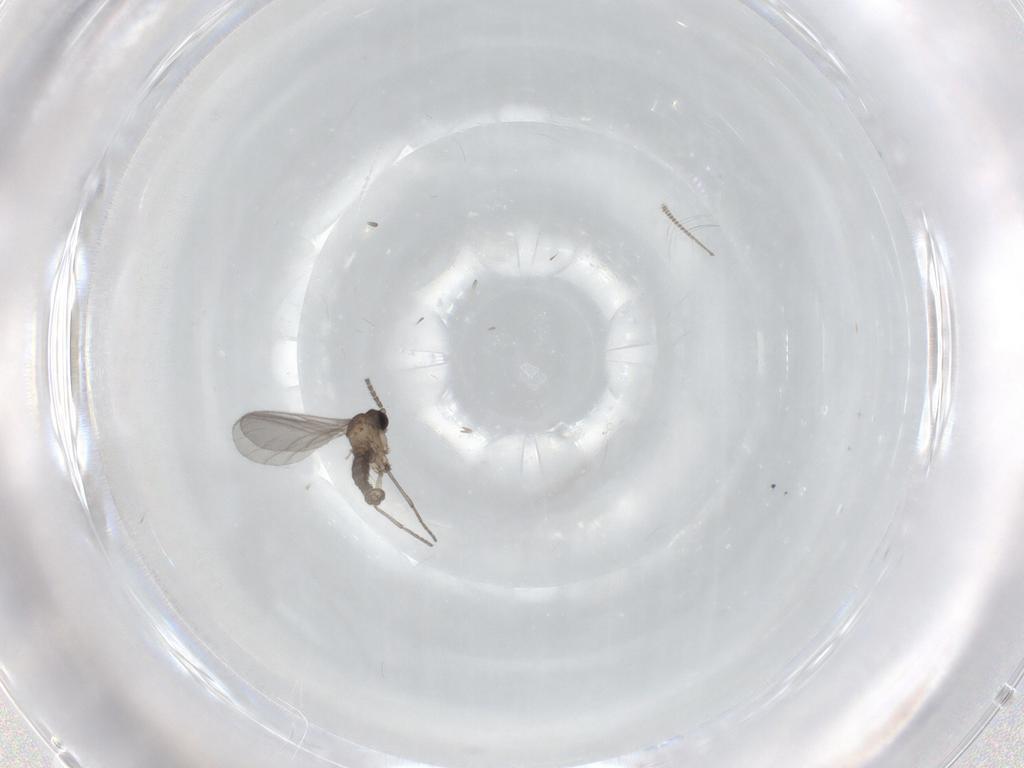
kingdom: Animalia
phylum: Arthropoda
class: Insecta
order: Diptera
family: Sciaridae
